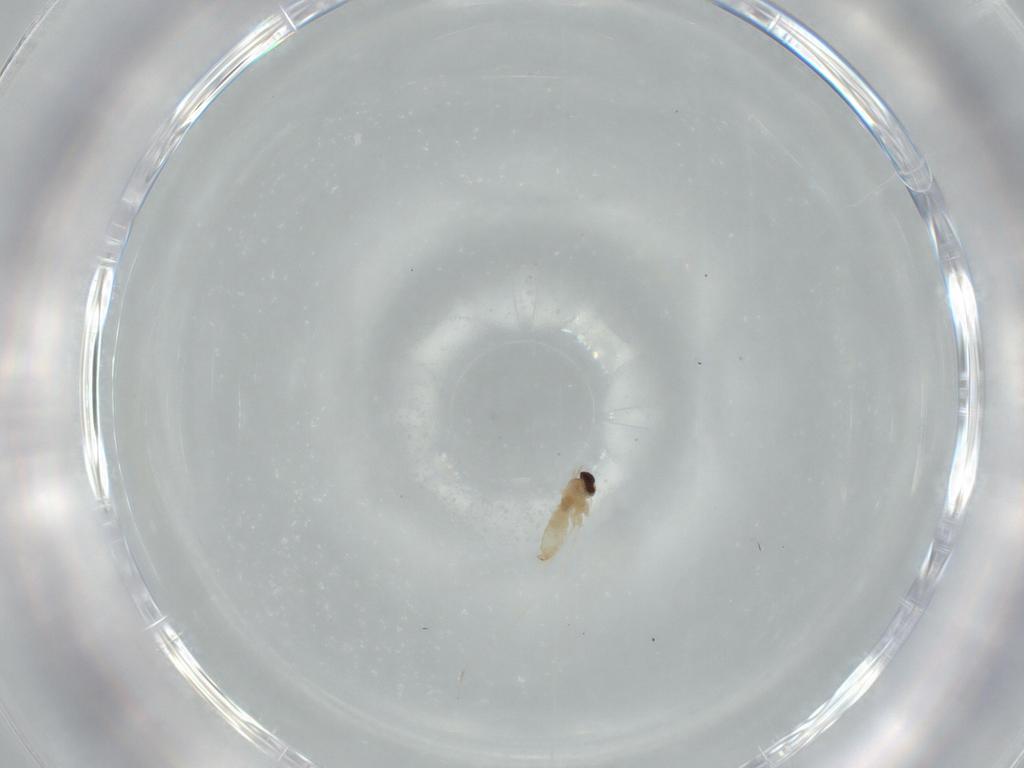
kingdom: Animalia
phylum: Arthropoda
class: Insecta
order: Diptera
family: Cecidomyiidae
